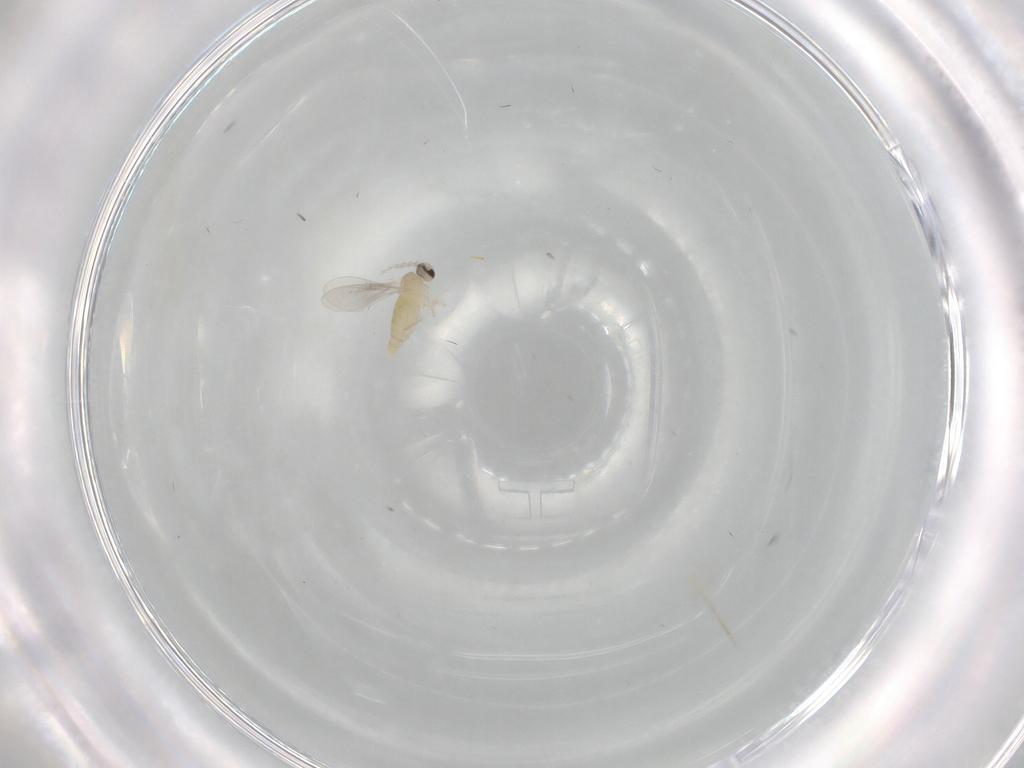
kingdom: Animalia
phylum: Arthropoda
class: Insecta
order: Diptera
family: Cecidomyiidae
